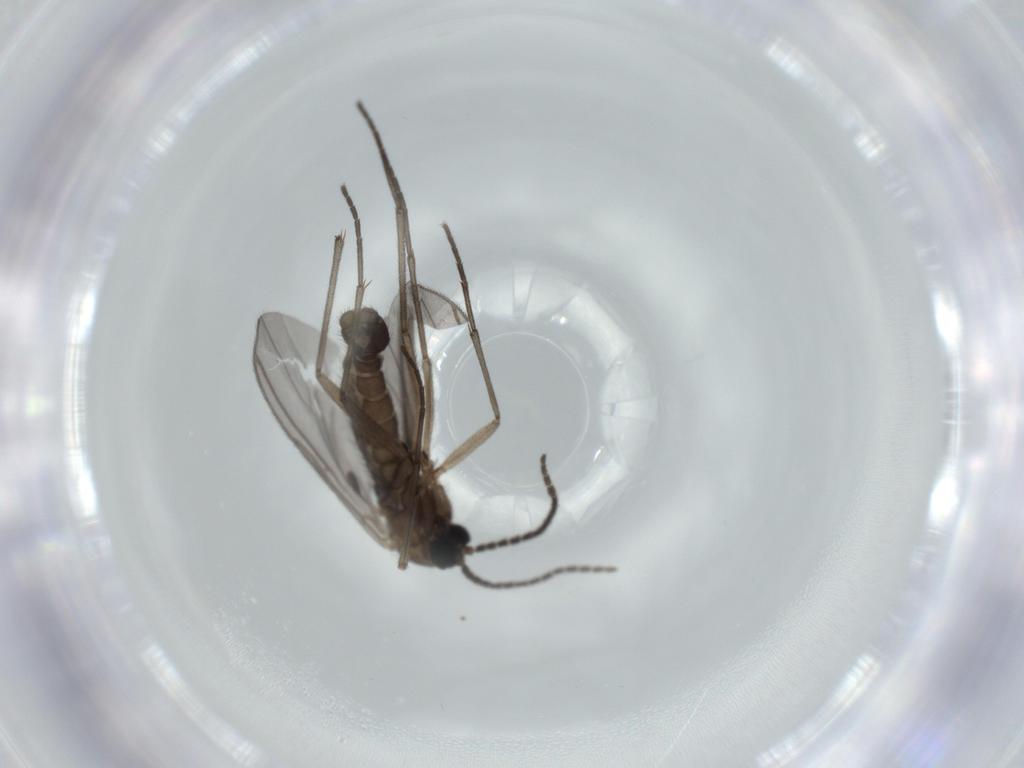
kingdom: Animalia
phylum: Arthropoda
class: Insecta
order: Diptera
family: Sciaridae
